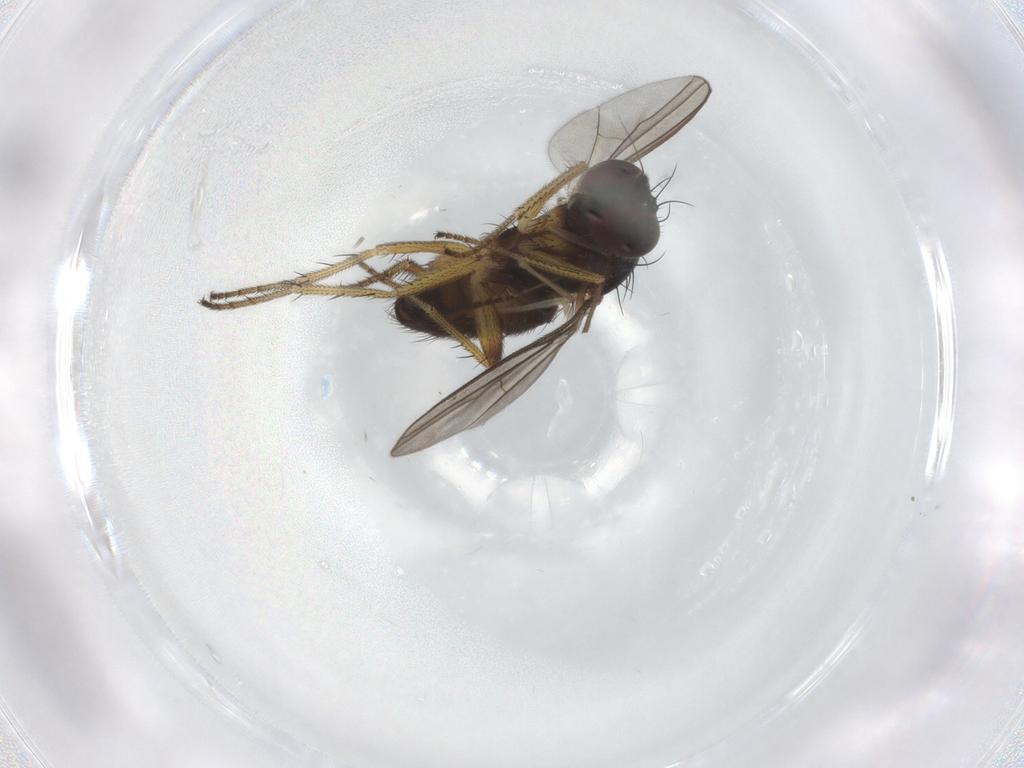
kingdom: Animalia
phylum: Arthropoda
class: Insecta
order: Diptera
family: Dolichopodidae
